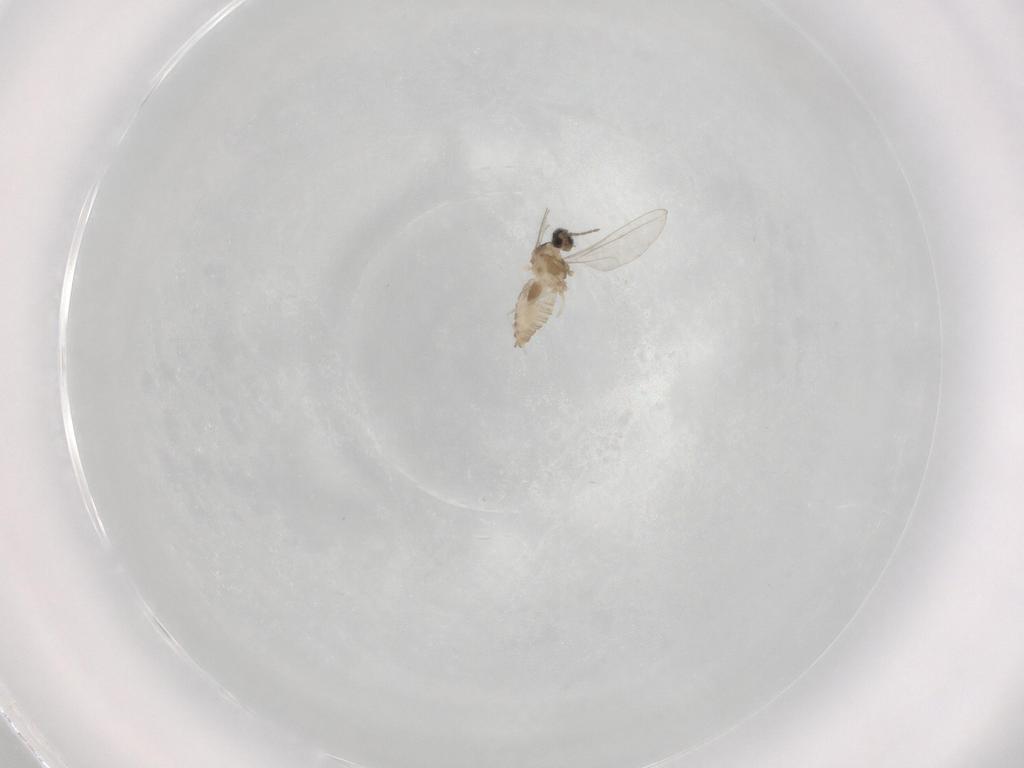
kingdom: Animalia
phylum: Arthropoda
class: Insecta
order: Diptera
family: Cecidomyiidae
